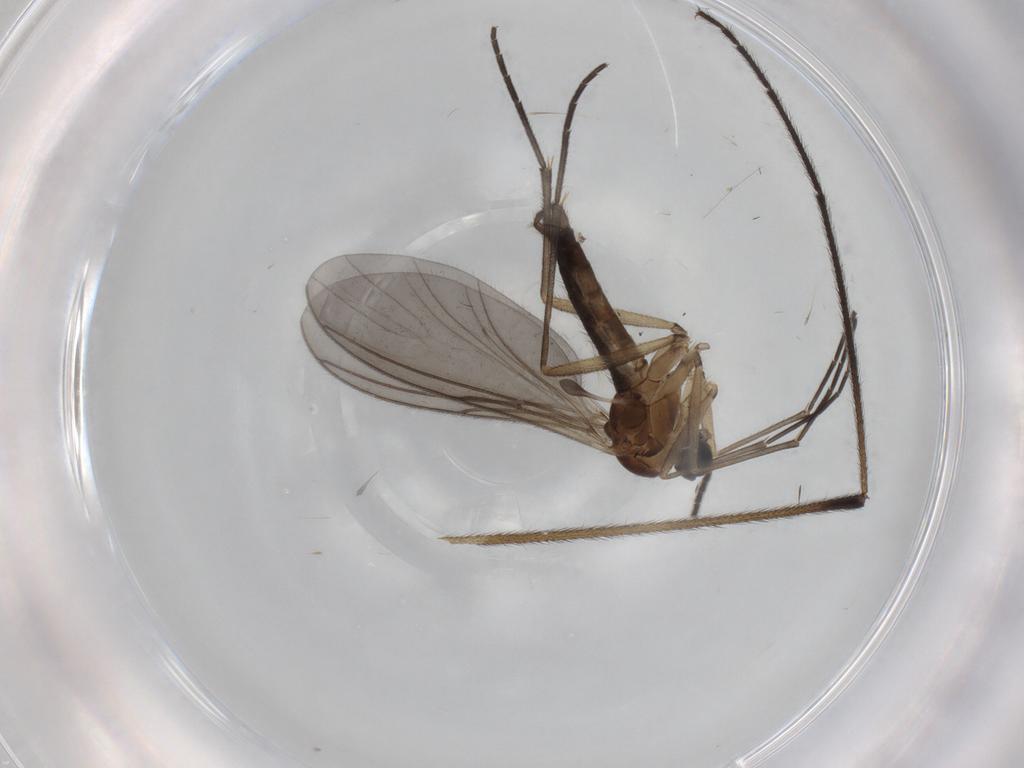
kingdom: Animalia
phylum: Arthropoda
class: Insecta
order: Diptera
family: Sciaridae
